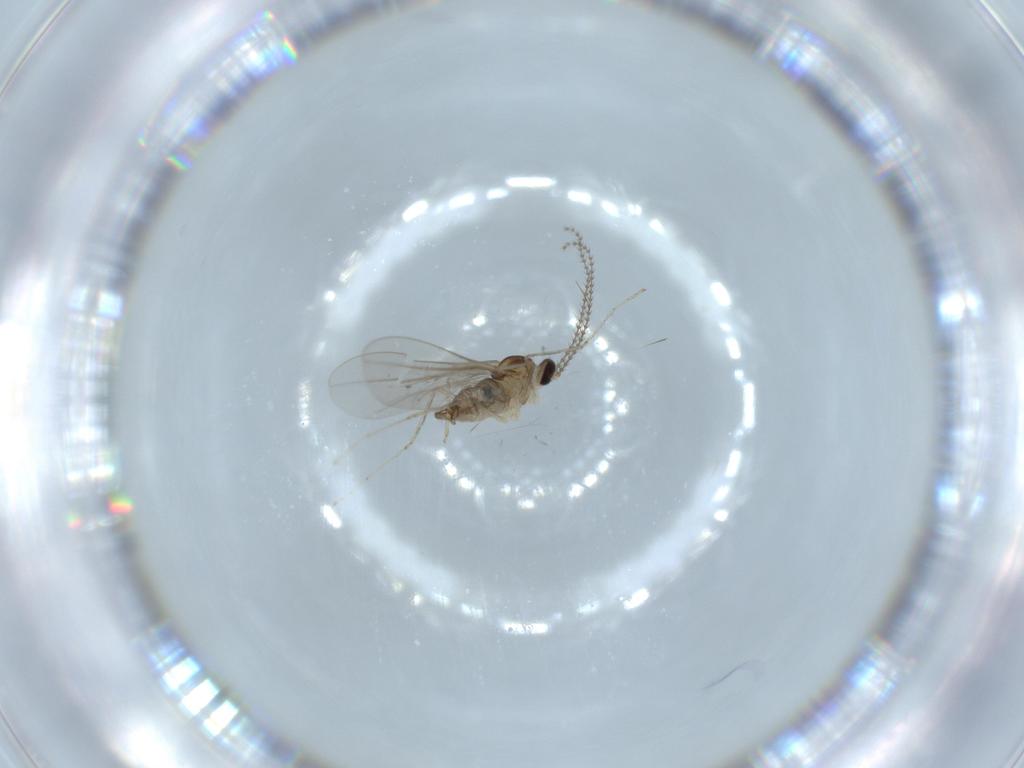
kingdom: Animalia
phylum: Arthropoda
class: Insecta
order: Diptera
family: Cecidomyiidae
